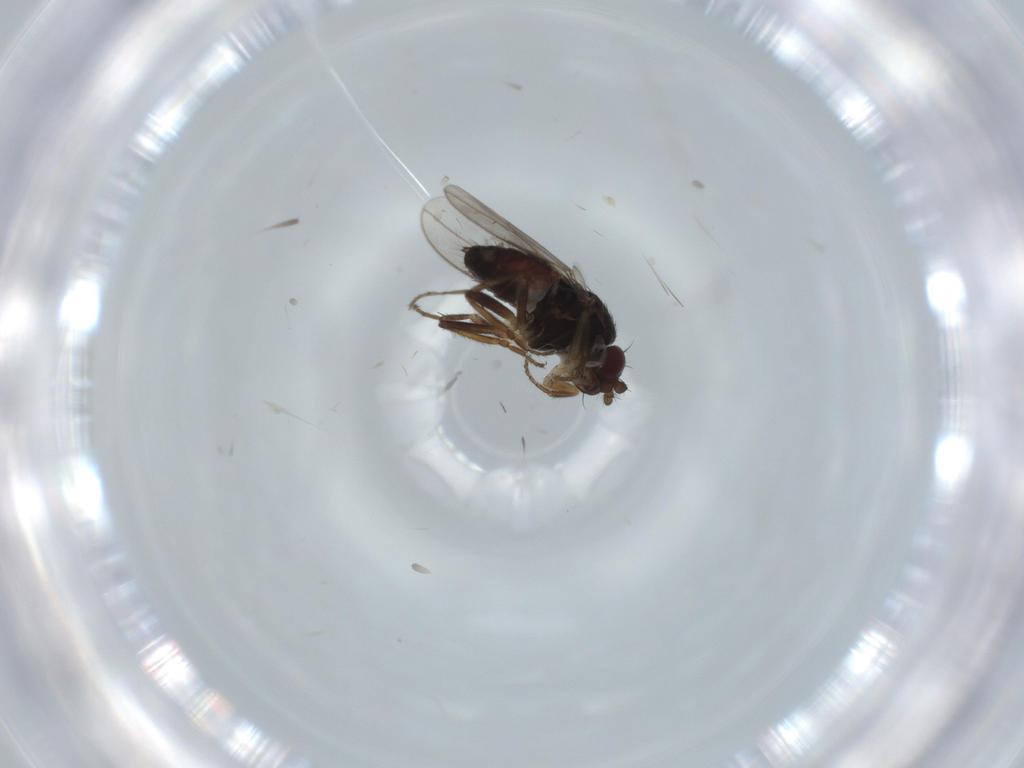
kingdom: Animalia
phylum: Arthropoda
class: Insecta
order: Diptera
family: Sphaeroceridae
